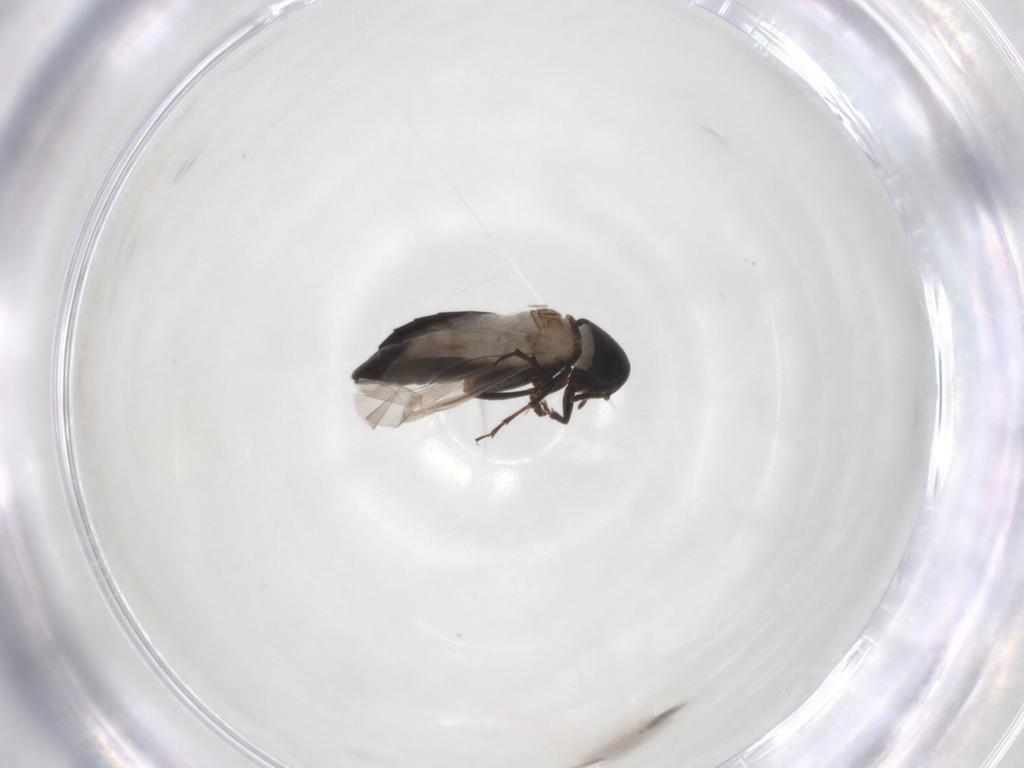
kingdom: Animalia
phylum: Arthropoda
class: Insecta
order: Coleoptera
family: Scraptiidae
